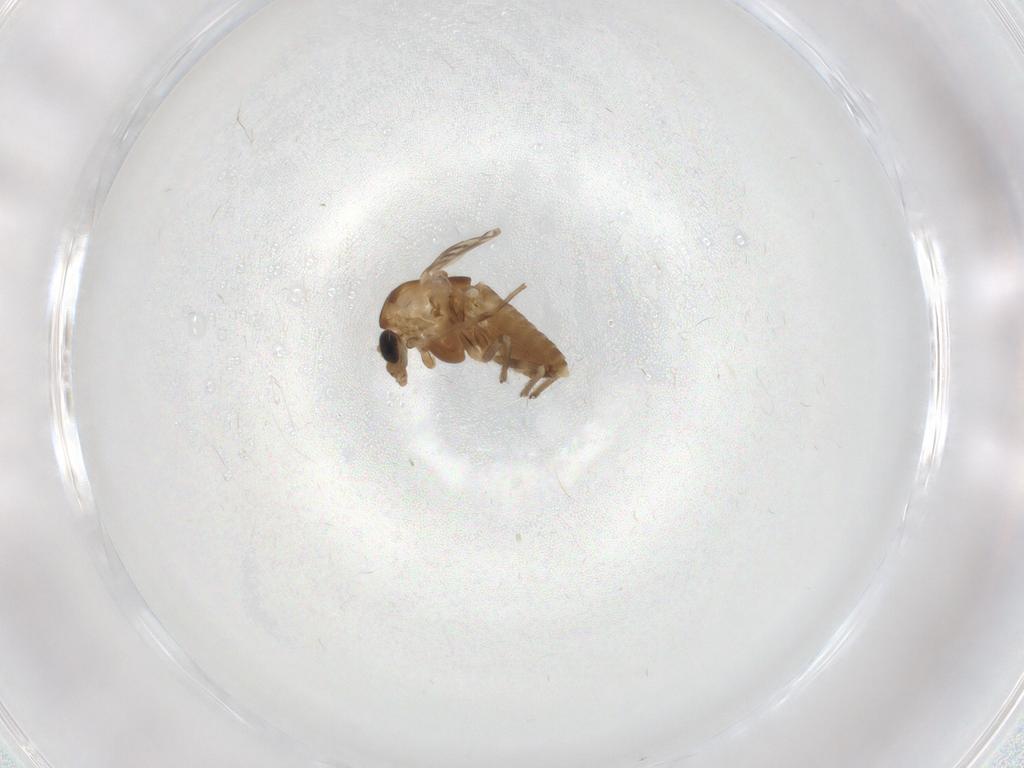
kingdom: Animalia
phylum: Arthropoda
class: Insecta
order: Diptera
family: Chironomidae
